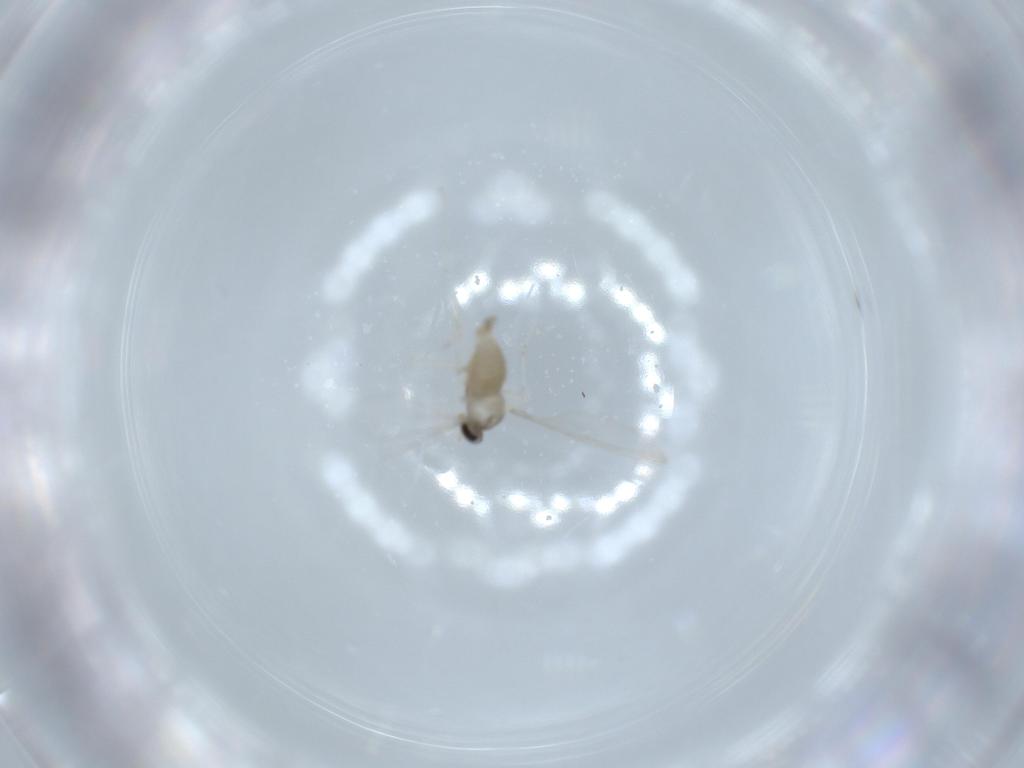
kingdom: Animalia
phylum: Arthropoda
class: Insecta
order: Diptera
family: Cecidomyiidae
